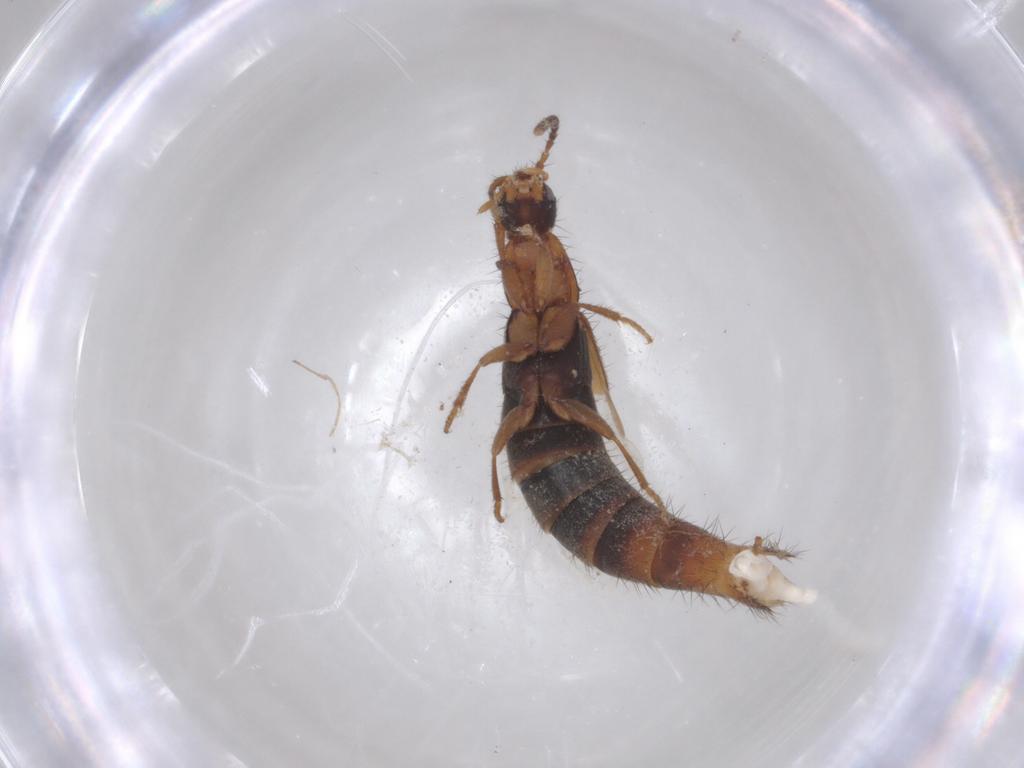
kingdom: Animalia
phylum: Arthropoda
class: Insecta
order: Coleoptera
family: Staphylinidae
